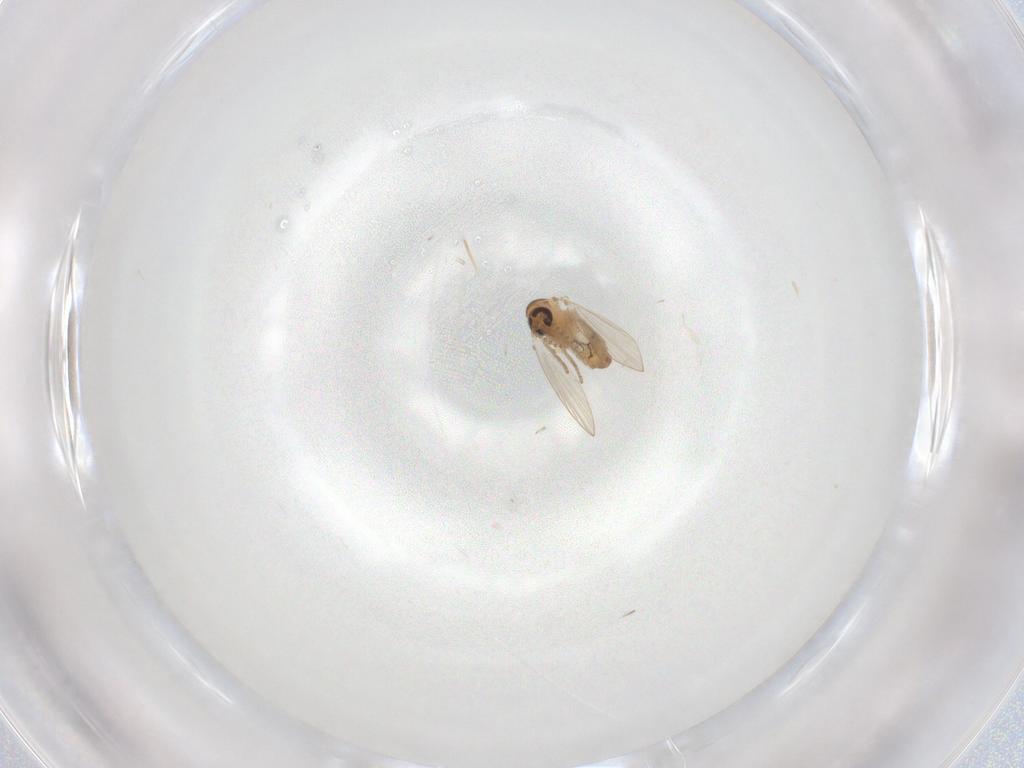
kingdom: Animalia
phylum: Arthropoda
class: Insecta
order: Diptera
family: Psychodidae
